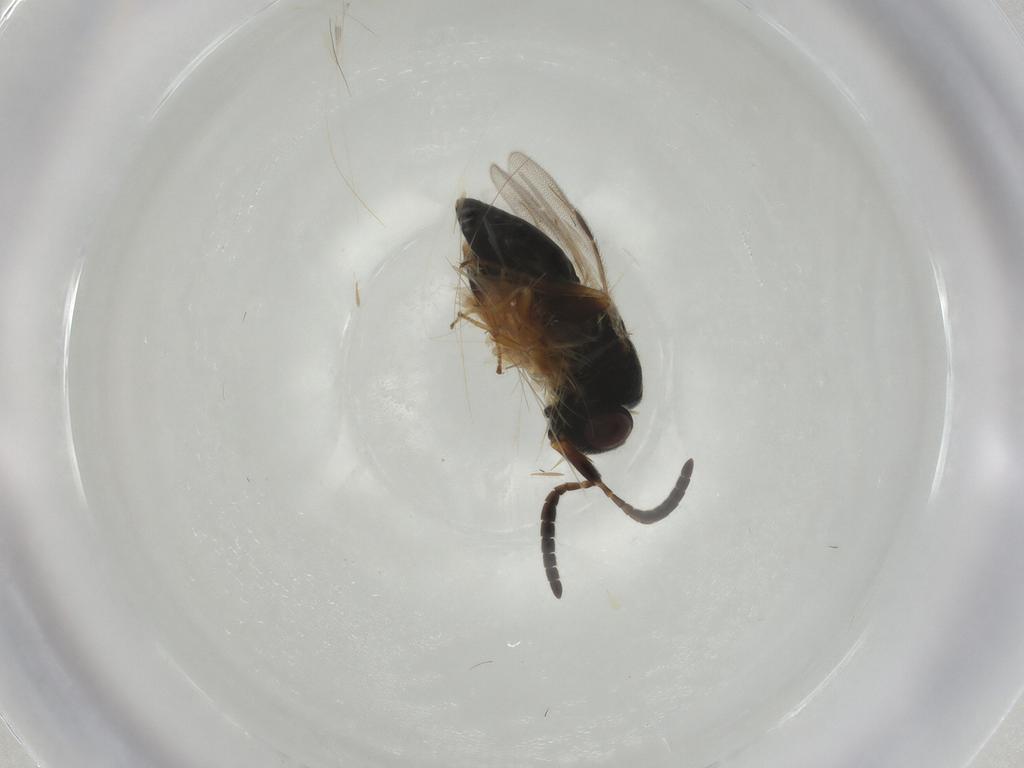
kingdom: Animalia
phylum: Arthropoda
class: Insecta
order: Diptera
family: Cecidomyiidae
